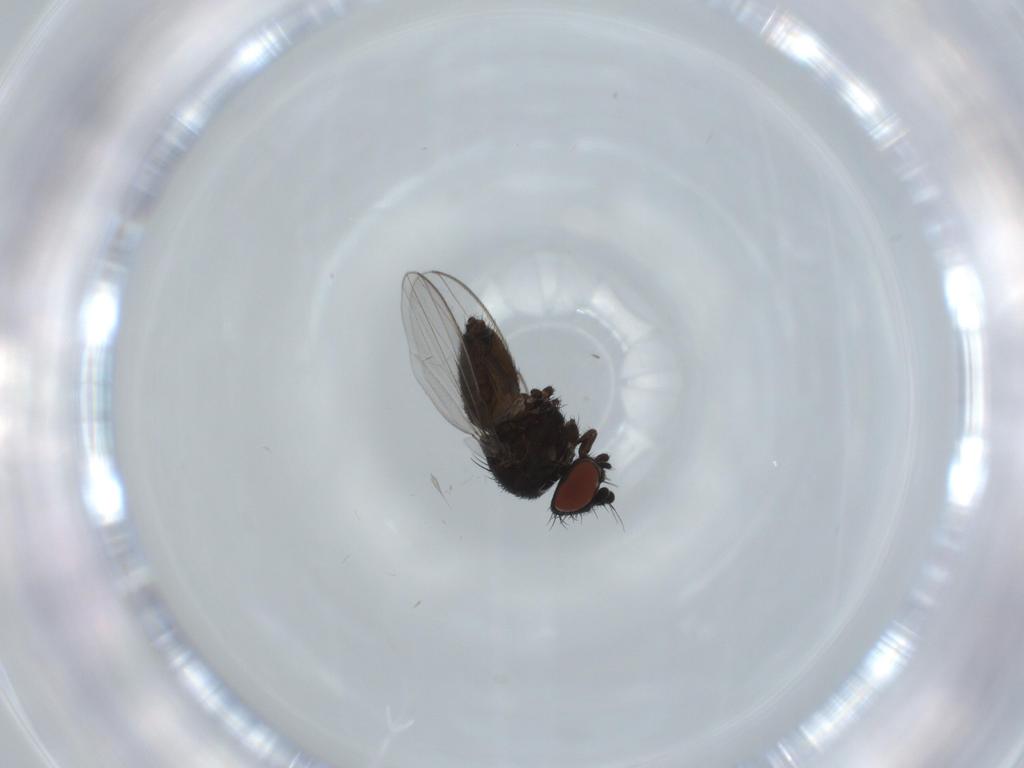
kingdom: Animalia
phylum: Arthropoda
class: Insecta
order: Diptera
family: Milichiidae
